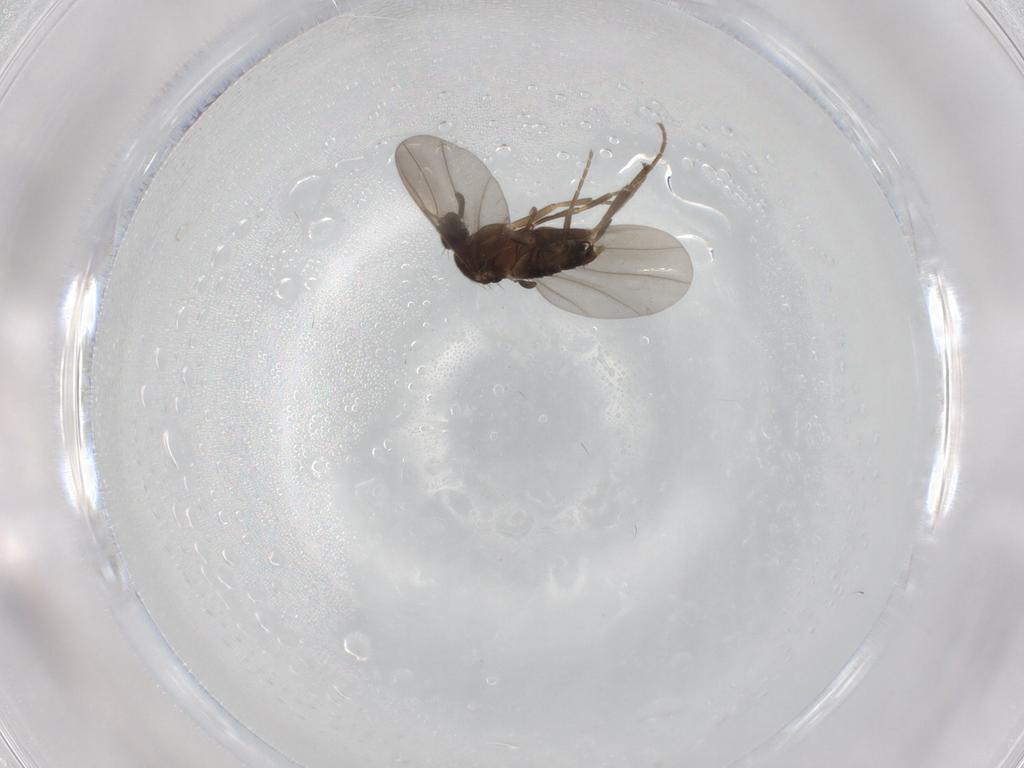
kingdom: Animalia
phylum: Arthropoda
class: Insecta
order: Diptera
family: Phoridae
